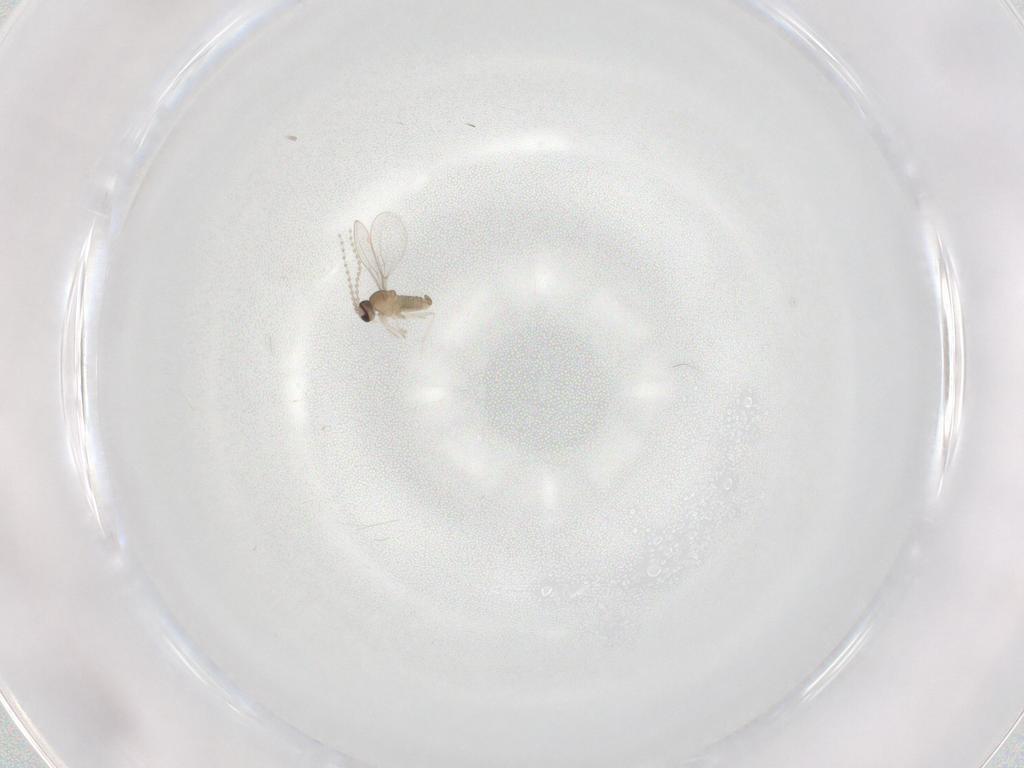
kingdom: Animalia
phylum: Arthropoda
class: Insecta
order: Diptera
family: Cecidomyiidae
